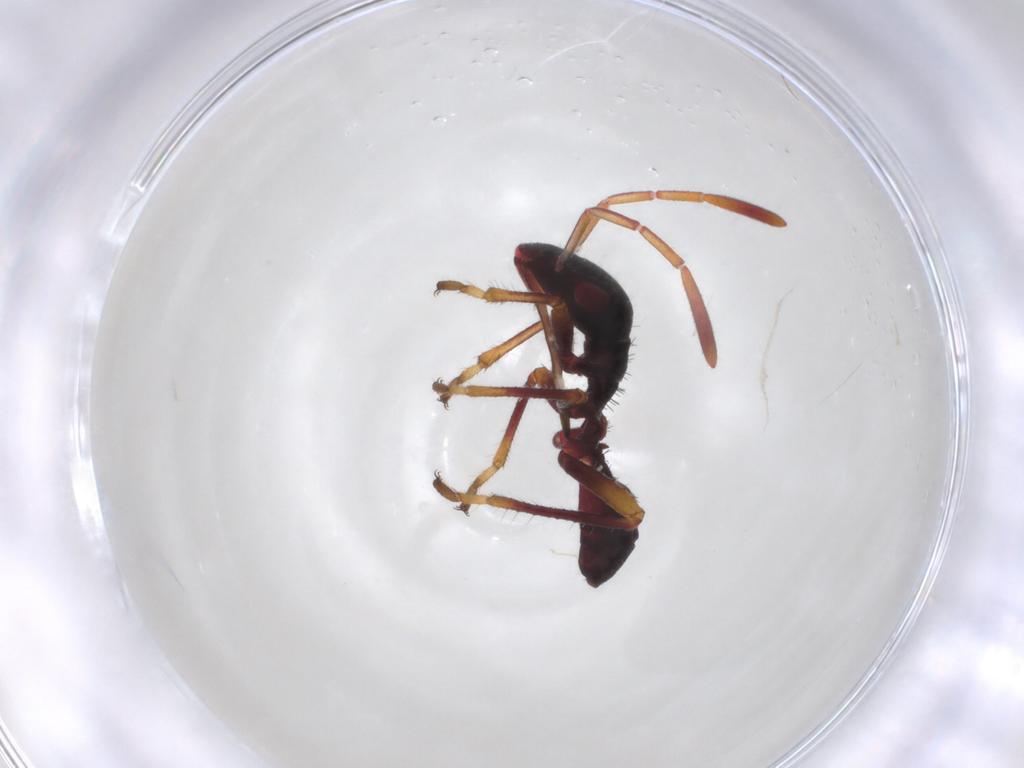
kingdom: Animalia
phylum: Arthropoda
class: Insecta
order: Hemiptera
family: Alydidae
